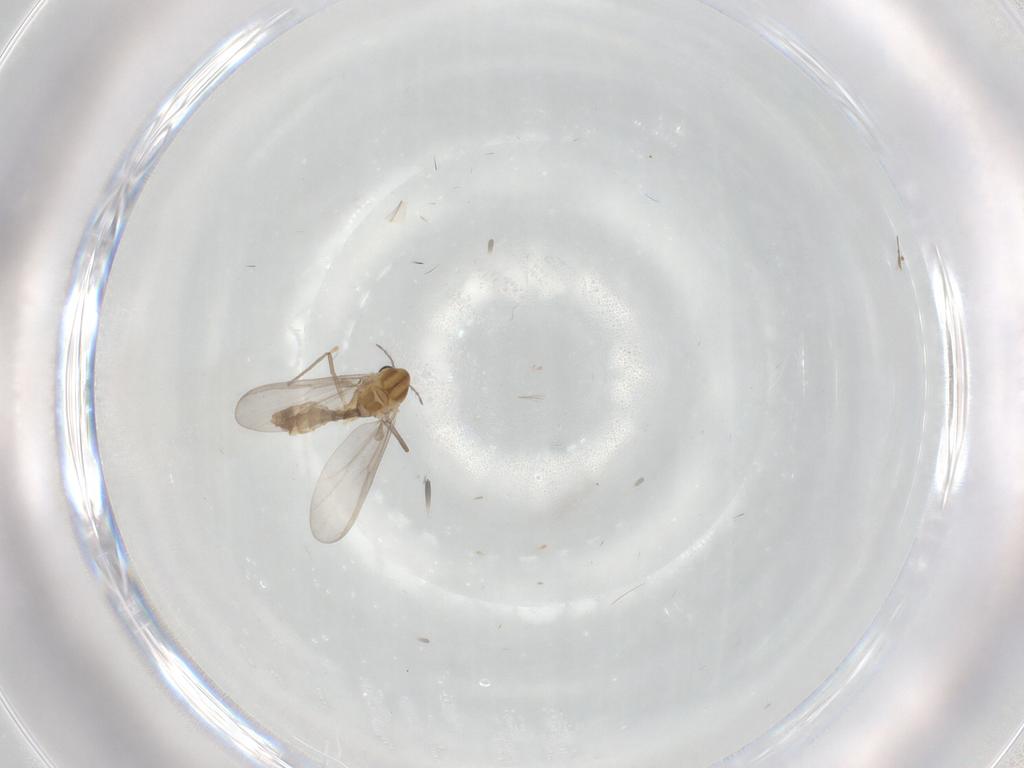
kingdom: Animalia
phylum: Arthropoda
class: Insecta
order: Diptera
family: Chironomidae
